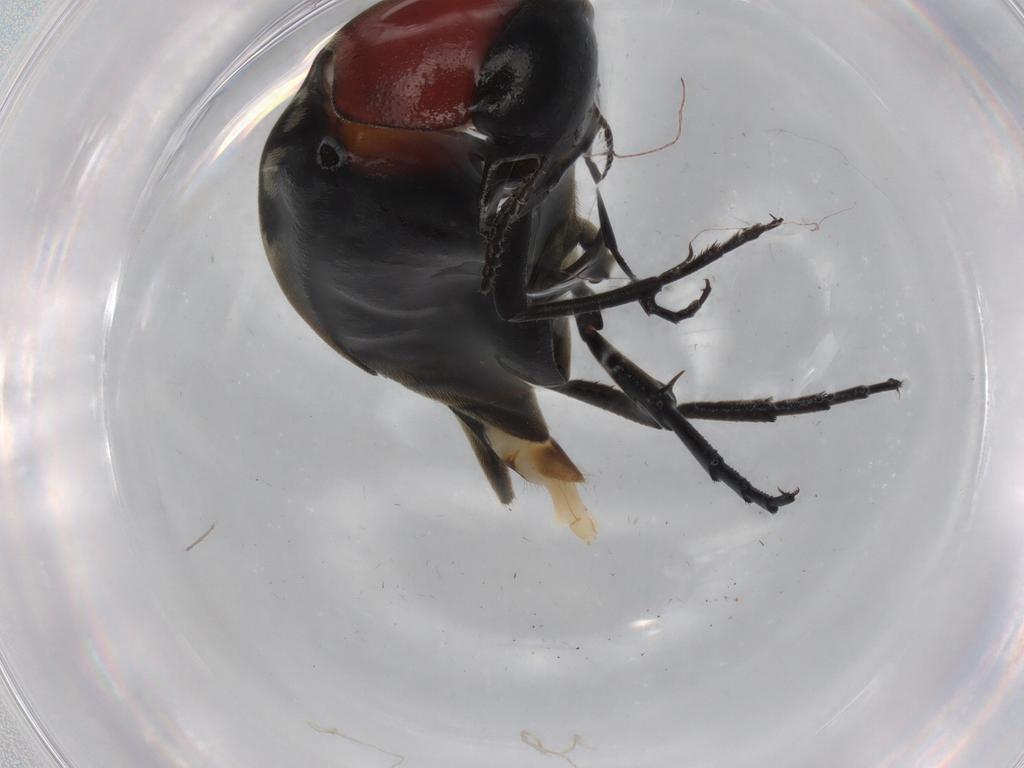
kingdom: Animalia
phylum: Arthropoda
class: Insecta
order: Coleoptera
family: Mordellidae
